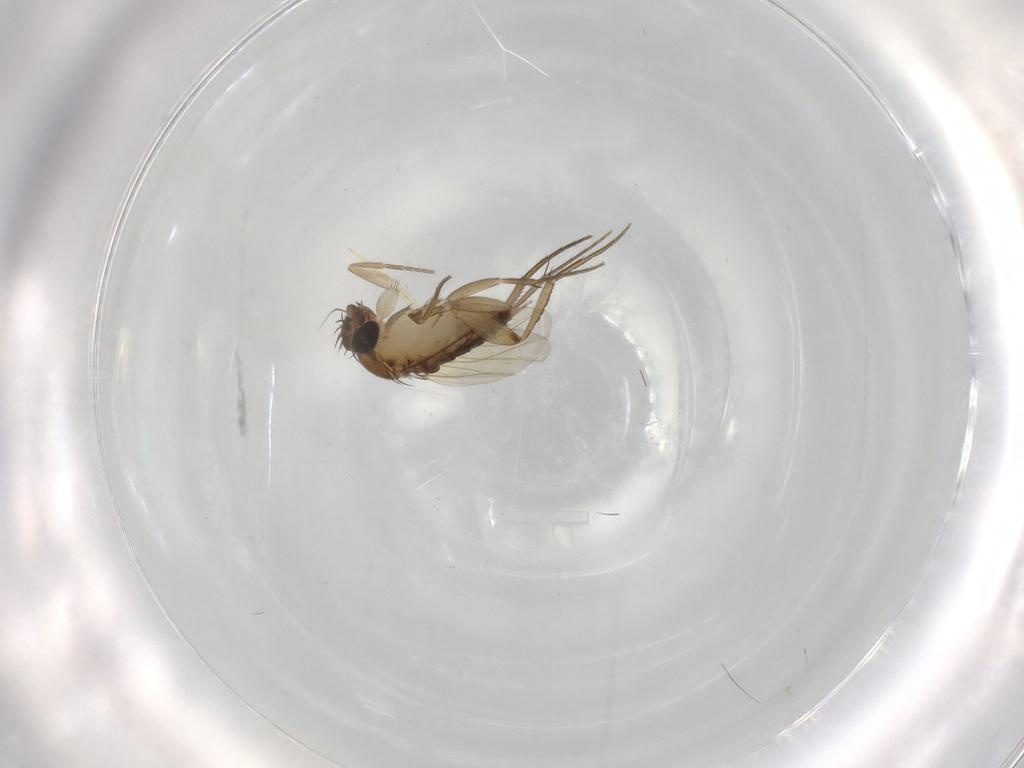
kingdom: Animalia
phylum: Arthropoda
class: Insecta
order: Diptera
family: Phoridae
